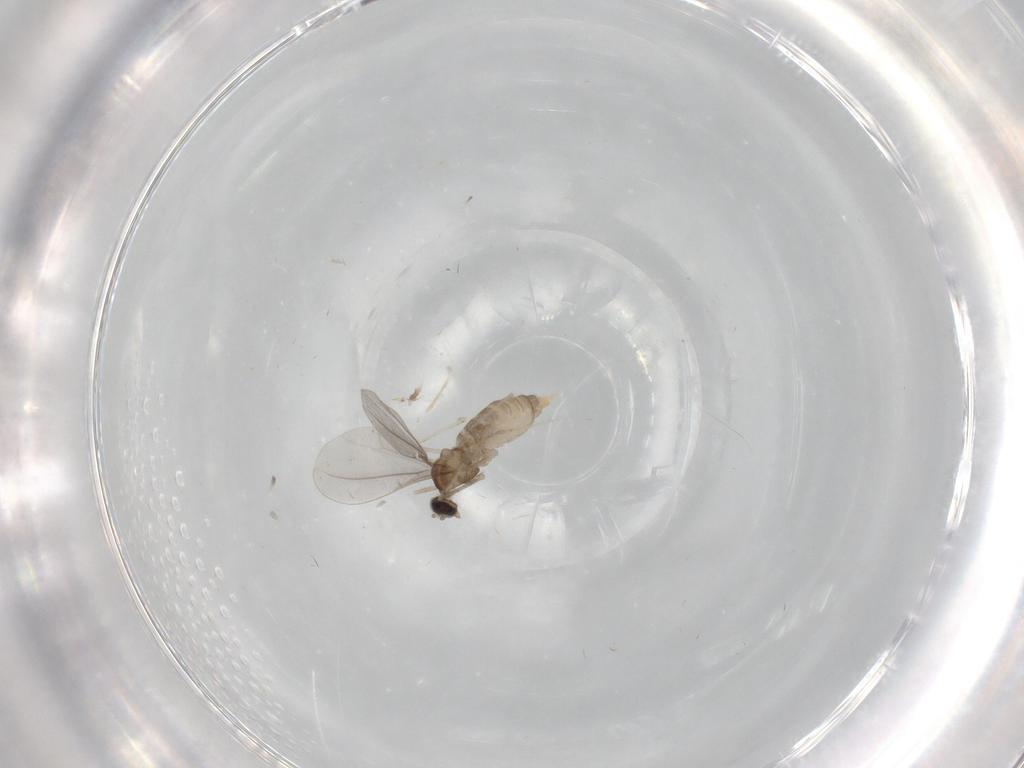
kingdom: Animalia
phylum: Arthropoda
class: Insecta
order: Diptera
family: Cecidomyiidae
